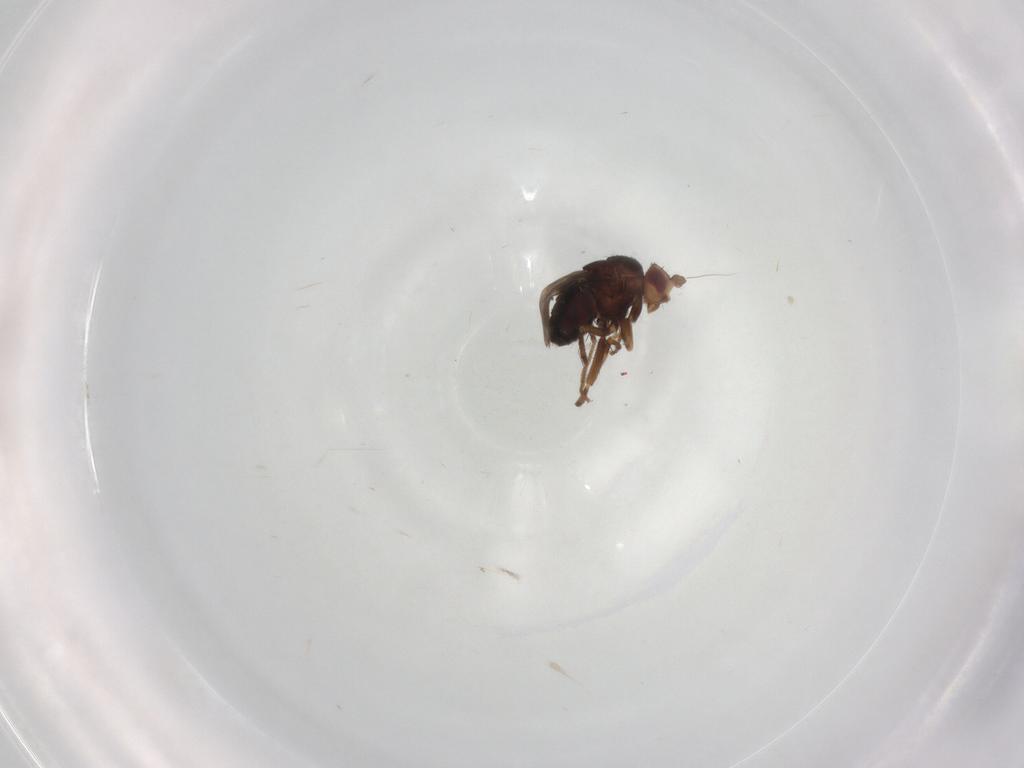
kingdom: Animalia
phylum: Arthropoda
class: Insecta
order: Diptera
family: Cecidomyiidae
